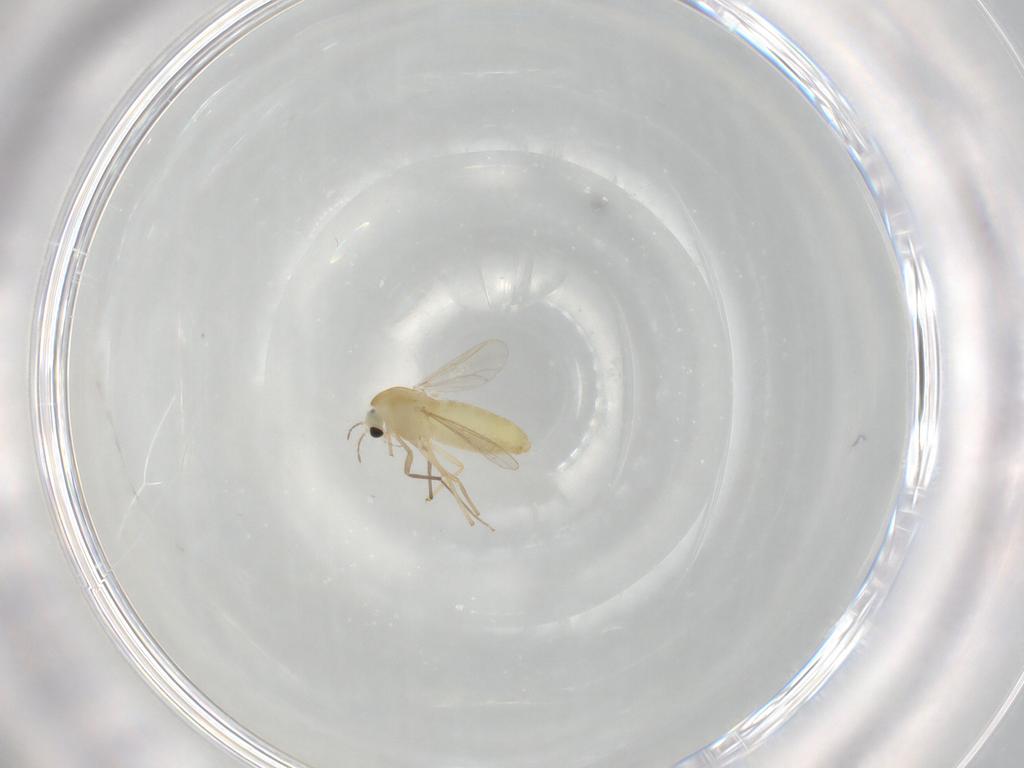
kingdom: Animalia
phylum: Arthropoda
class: Insecta
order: Diptera
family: Chironomidae
